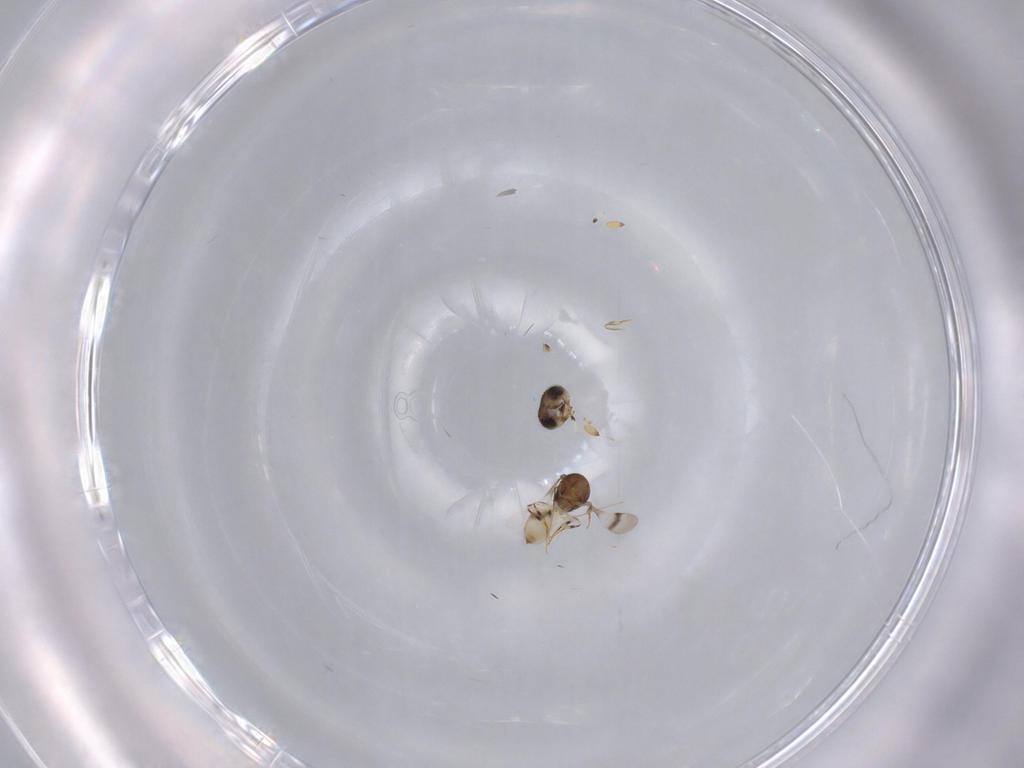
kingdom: Animalia
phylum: Arthropoda
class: Insecta
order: Hymenoptera
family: Scelionidae
